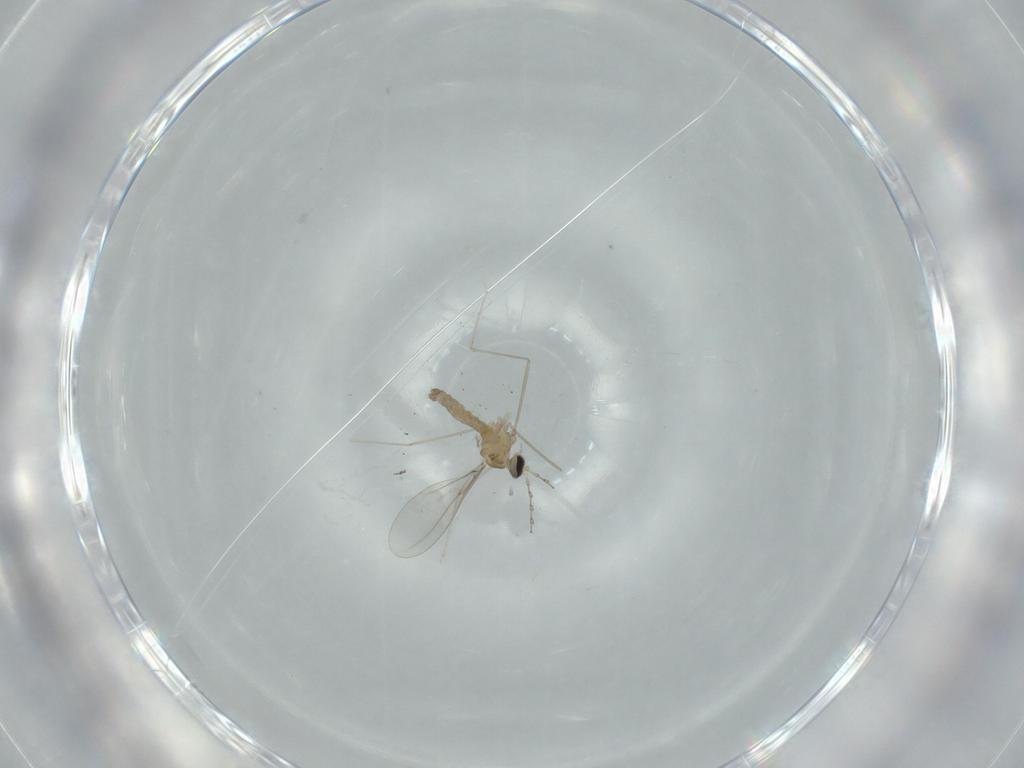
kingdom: Animalia
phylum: Arthropoda
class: Insecta
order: Diptera
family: Cecidomyiidae
